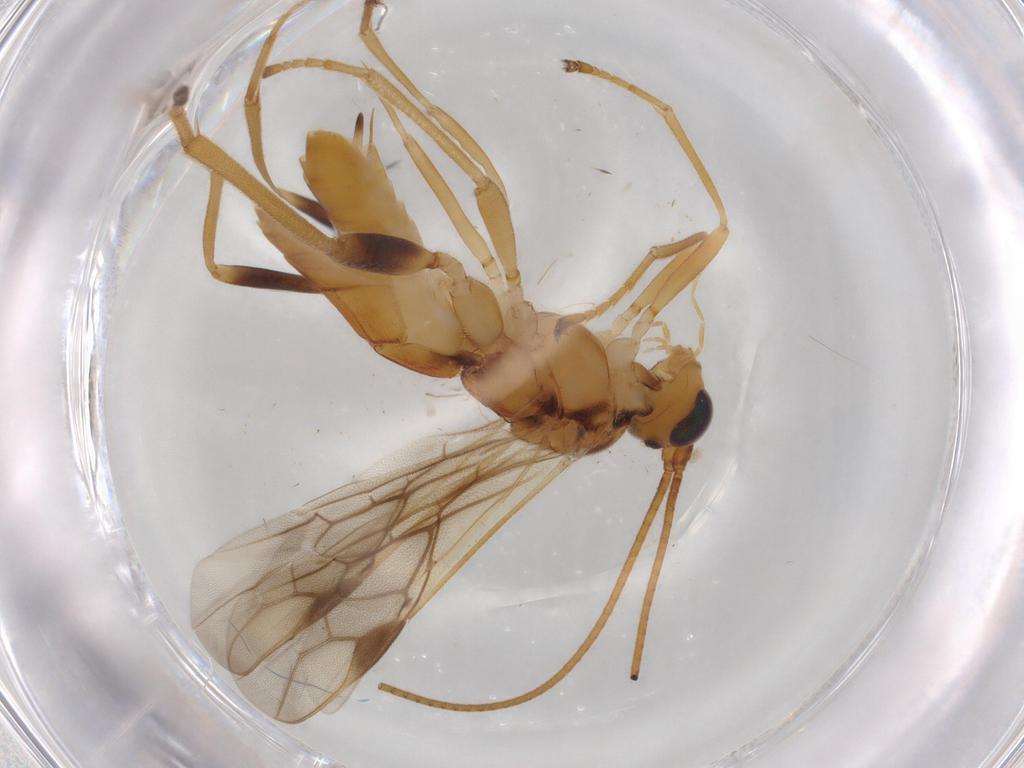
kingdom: Animalia
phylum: Arthropoda
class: Insecta
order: Hymenoptera
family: Figitidae
